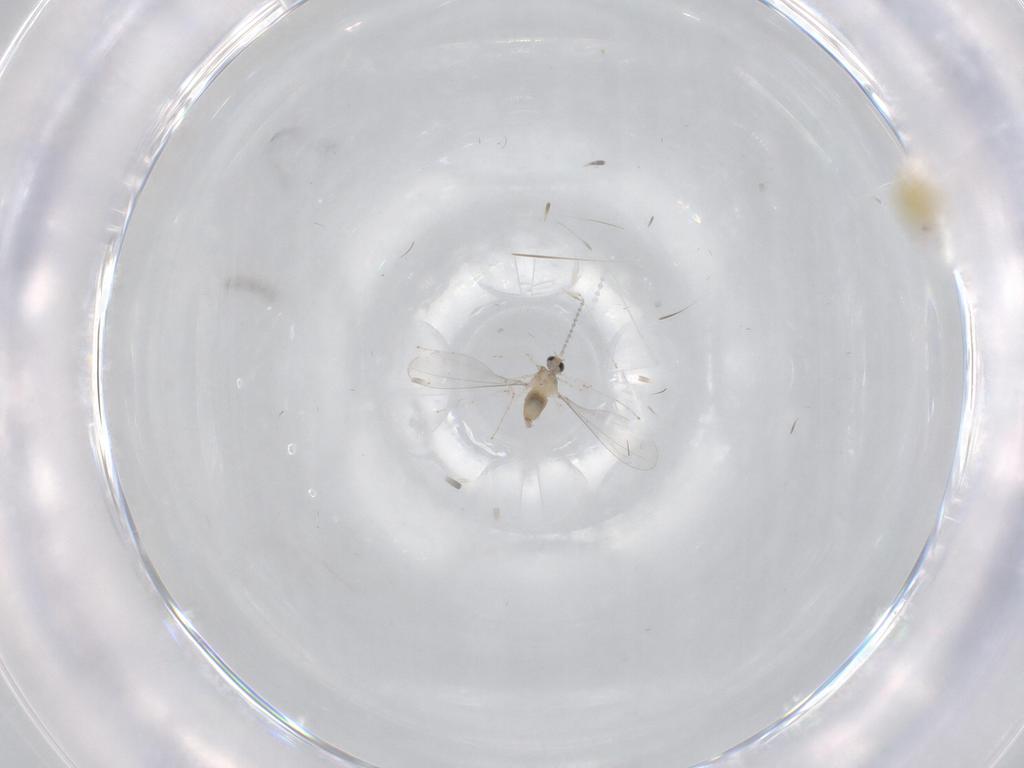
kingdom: Animalia
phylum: Arthropoda
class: Insecta
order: Diptera
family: Cecidomyiidae
